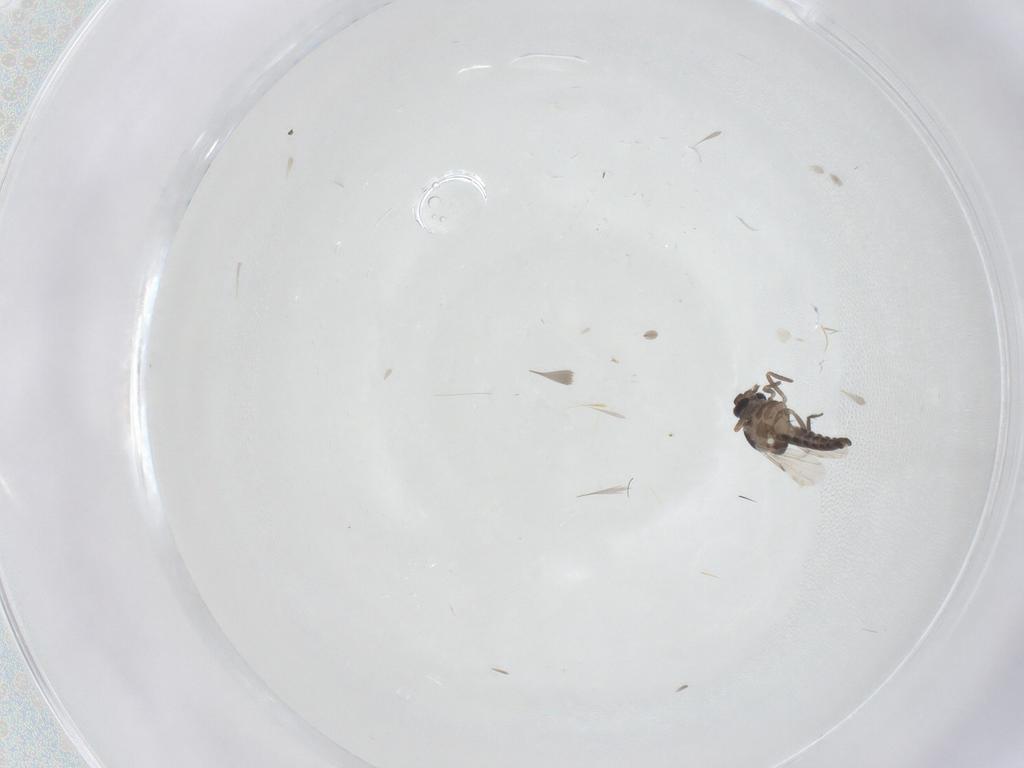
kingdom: Animalia
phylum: Arthropoda
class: Insecta
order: Diptera
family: Ceratopogonidae
